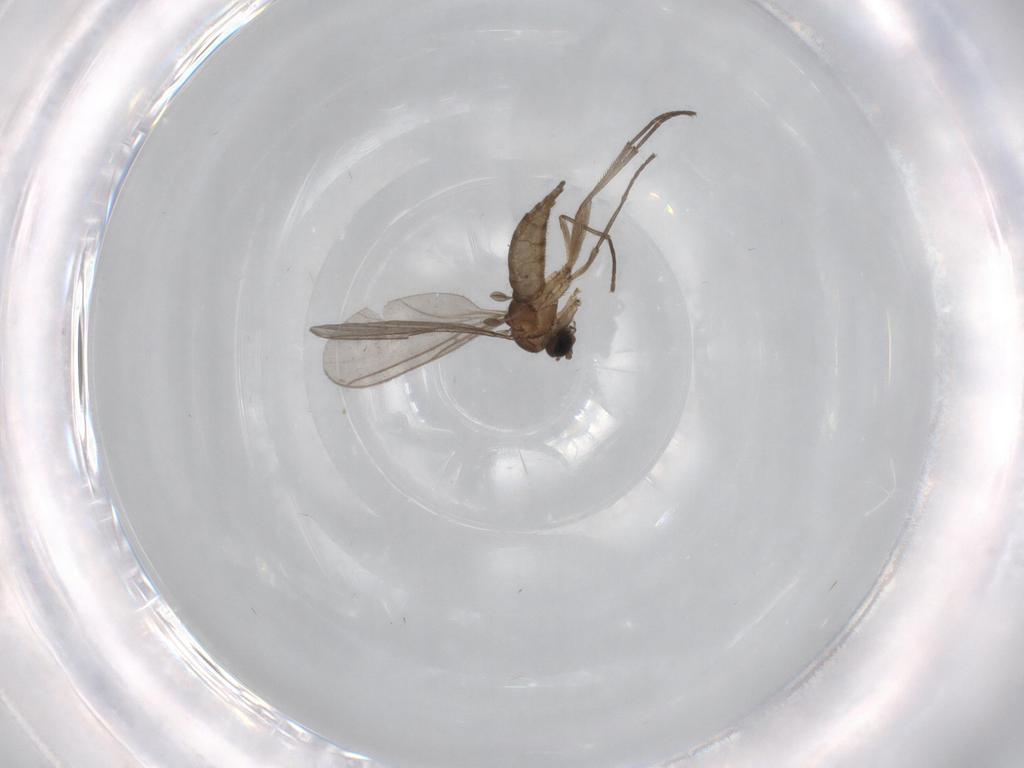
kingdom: Animalia
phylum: Arthropoda
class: Insecta
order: Diptera
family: Sciaridae
